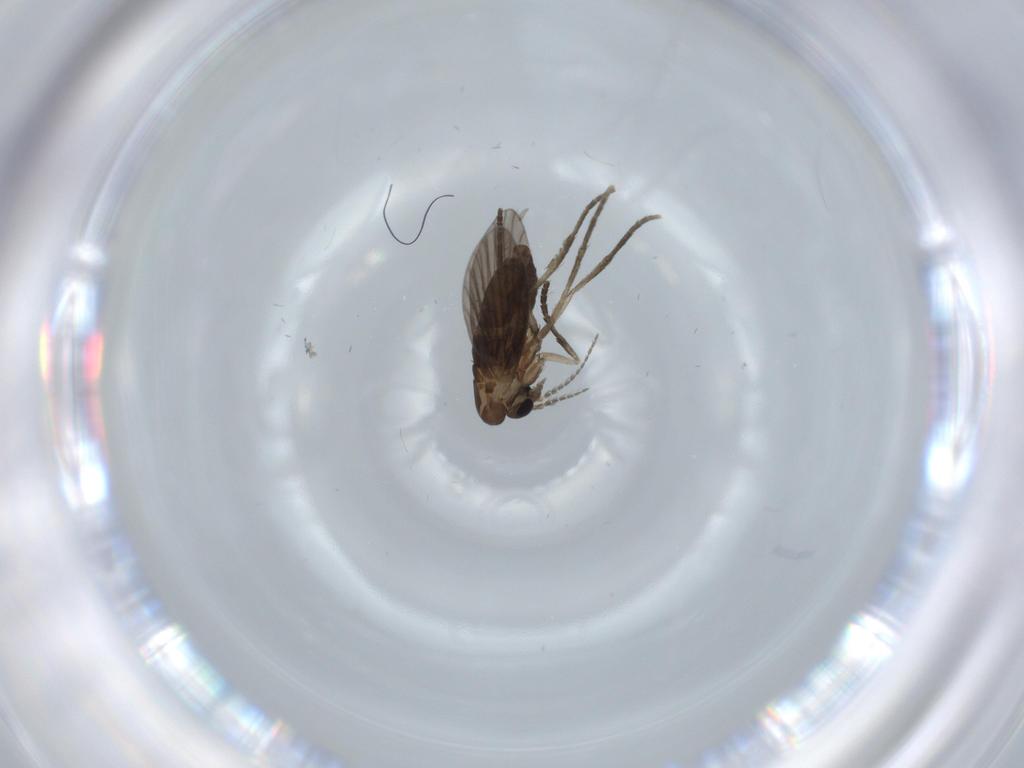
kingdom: Animalia
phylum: Arthropoda
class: Insecta
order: Diptera
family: Psychodidae
